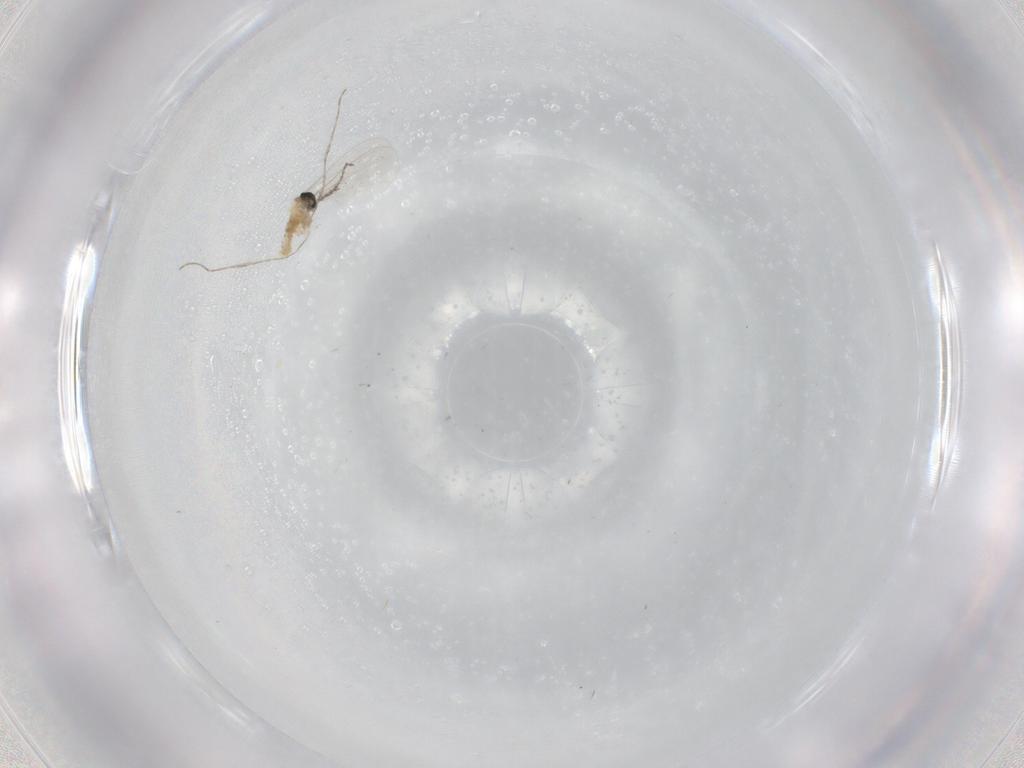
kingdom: Animalia
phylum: Arthropoda
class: Insecta
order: Diptera
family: Cecidomyiidae
